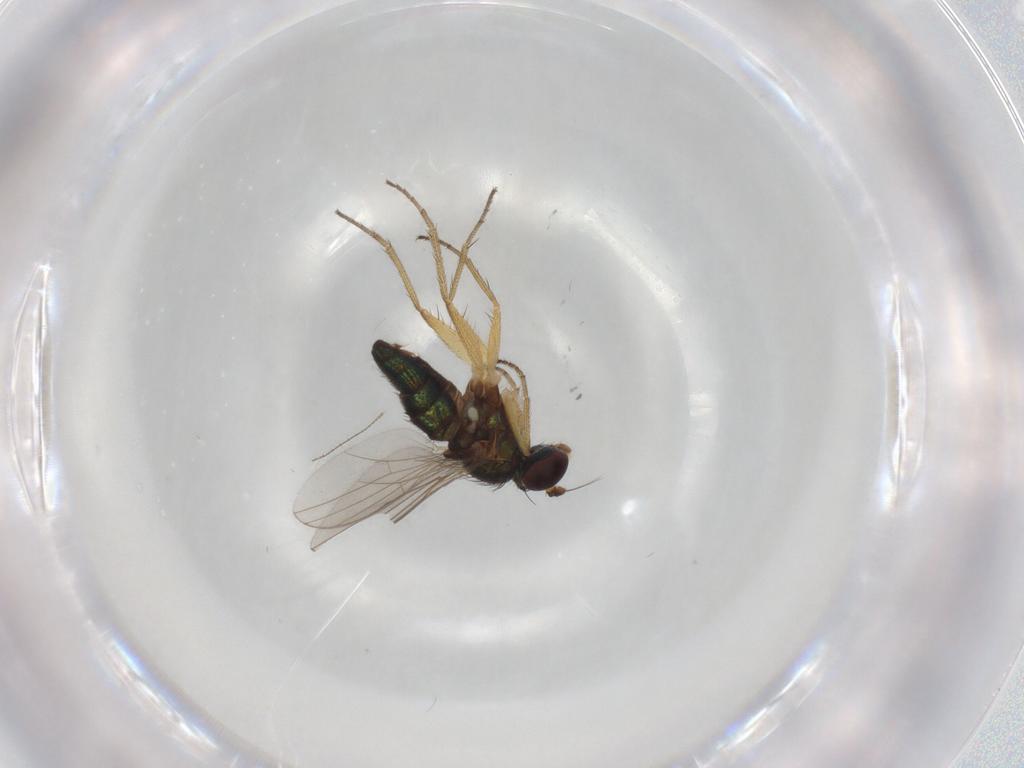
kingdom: Animalia
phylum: Arthropoda
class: Insecta
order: Diptera
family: Dolichopodidae
